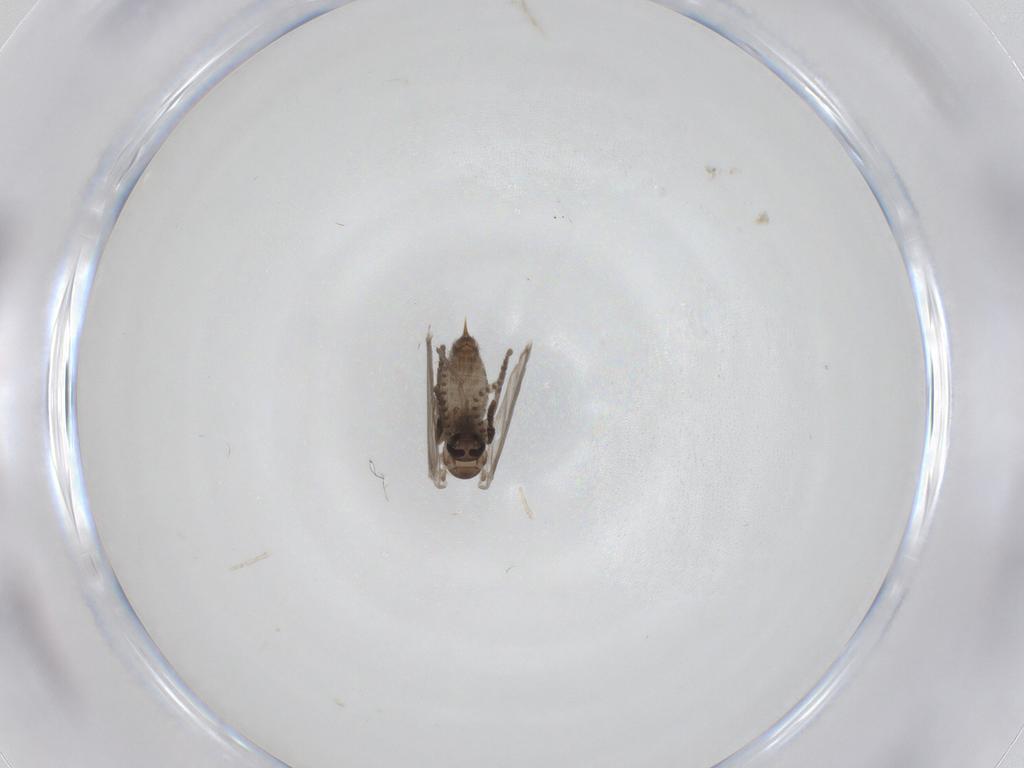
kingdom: Animalia
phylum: Arthropoda
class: Insecta
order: Diptera
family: Psychodidae
